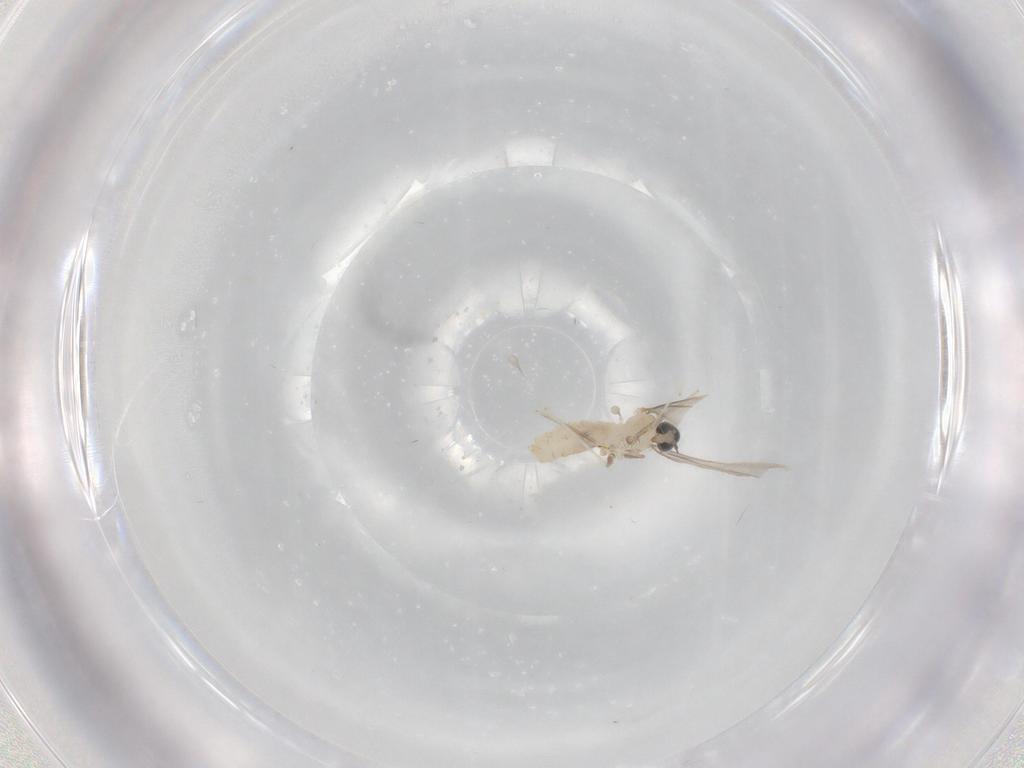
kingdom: Animalia
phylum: Arthropoda
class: Insecta
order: Diptera
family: Cecidomyiidae
